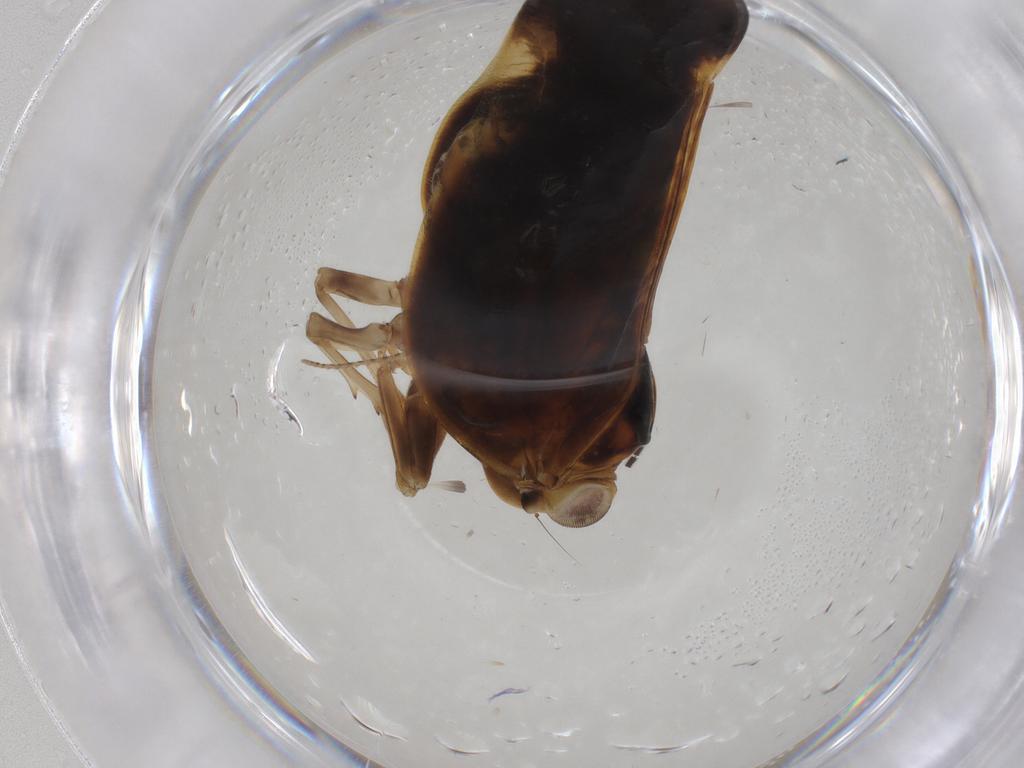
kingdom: Animalia
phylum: Arthropoda
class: Insecta
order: Hemiptera
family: Nogodinidae
